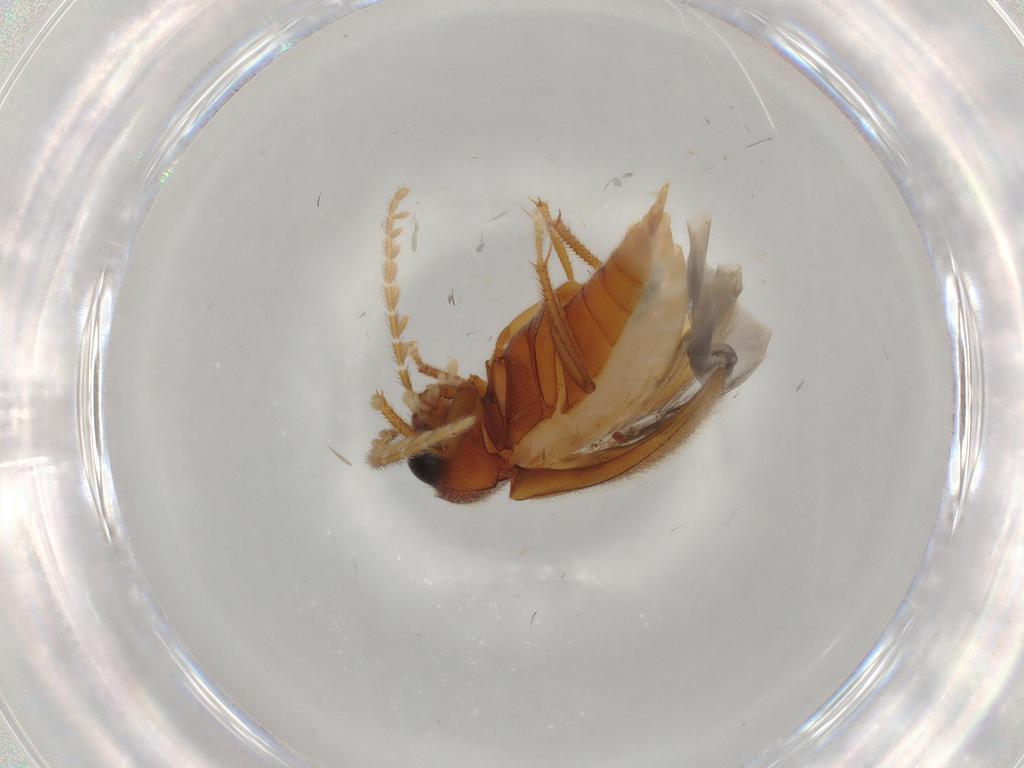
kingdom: Animalia
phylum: Arthropoda
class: Insecta
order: Coleoptera
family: Ptilodactylidae
